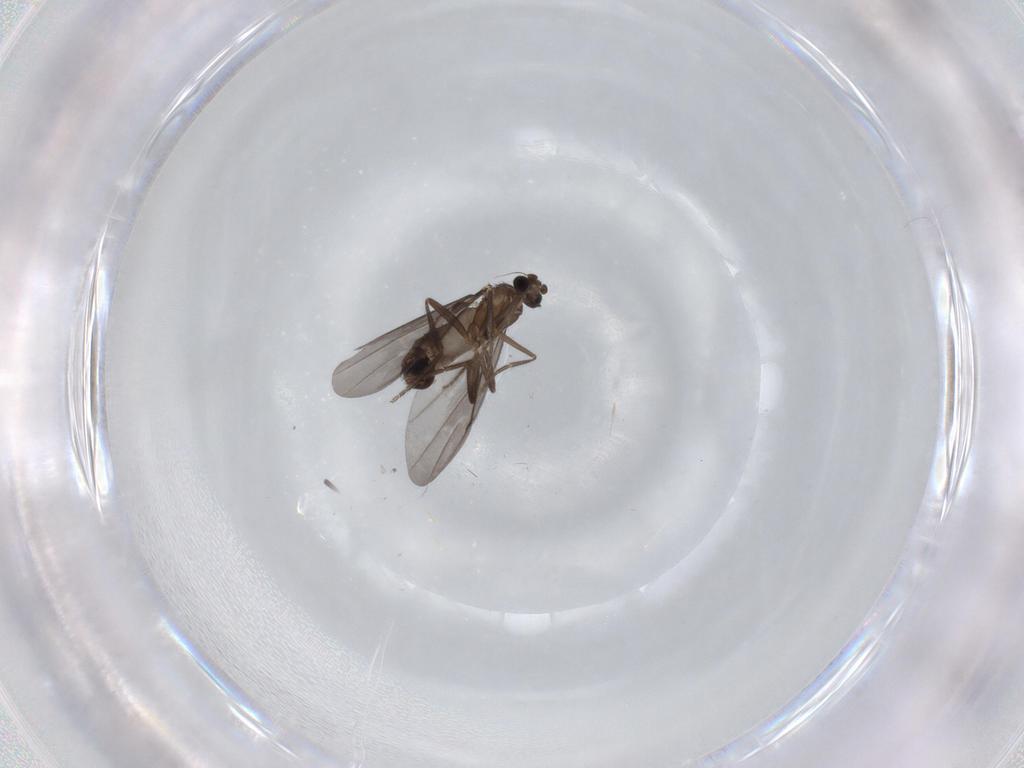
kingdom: Animalia
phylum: Arthropoda
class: Insecta
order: Diptera
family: Phoridae
